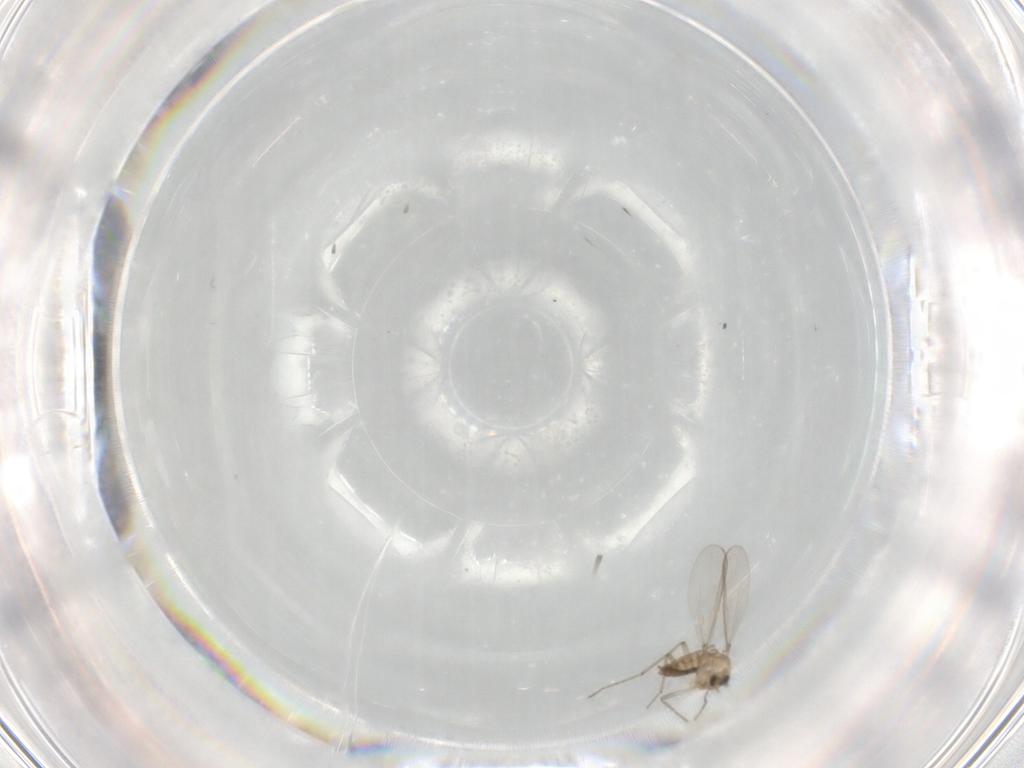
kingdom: Animalia
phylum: Arthropoda
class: Insecta
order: Diptera
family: Chironomidae
